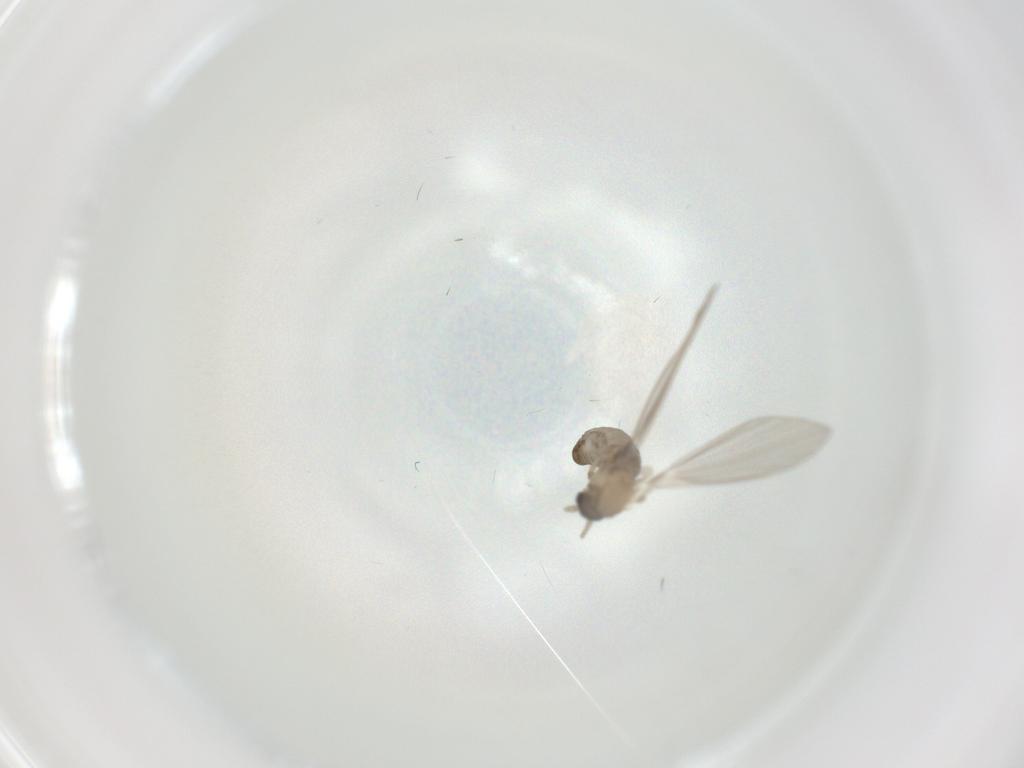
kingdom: Animalia
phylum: Arthropoda
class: Insecta
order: Diptera
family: Psychodidae
